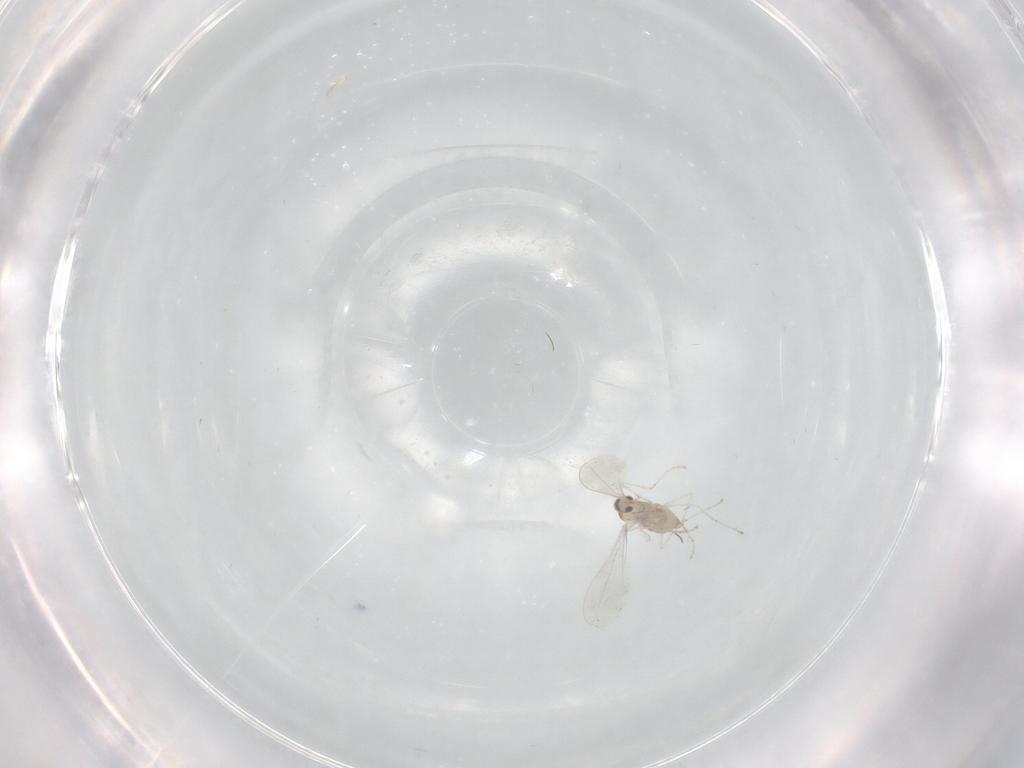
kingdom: Animalia
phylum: Arthropoda
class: Insecta
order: Diptera
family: Cecidomyiidae
